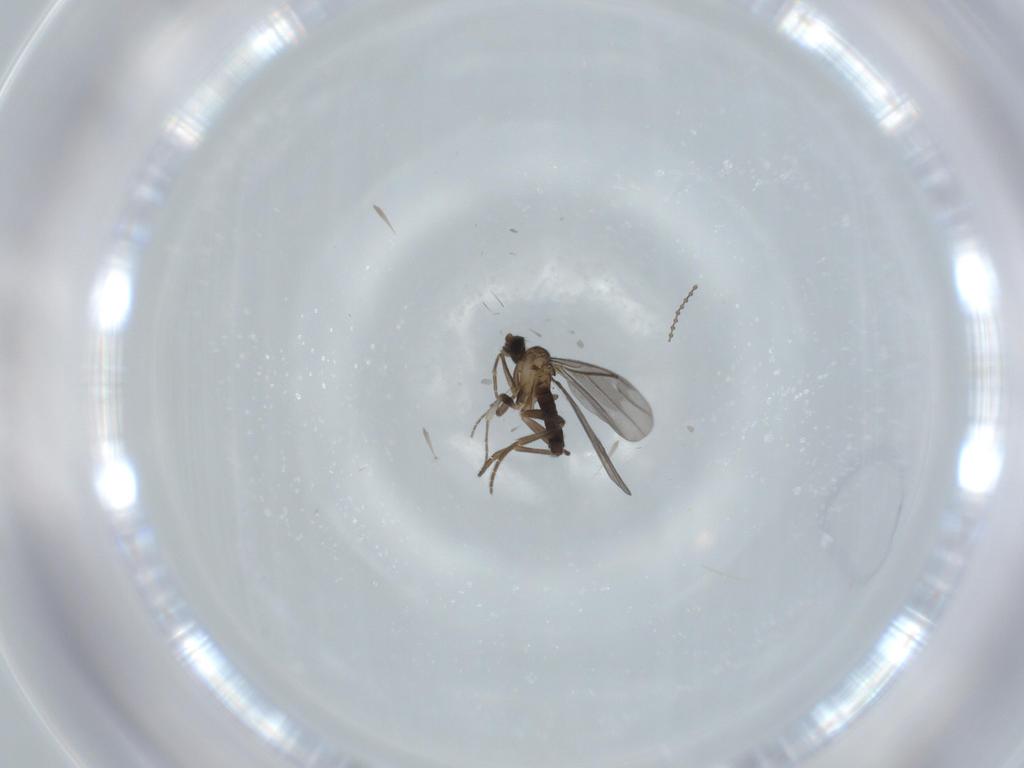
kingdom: Animalia
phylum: Arthropoda
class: Insecta
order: Diptera
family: Phoridae
